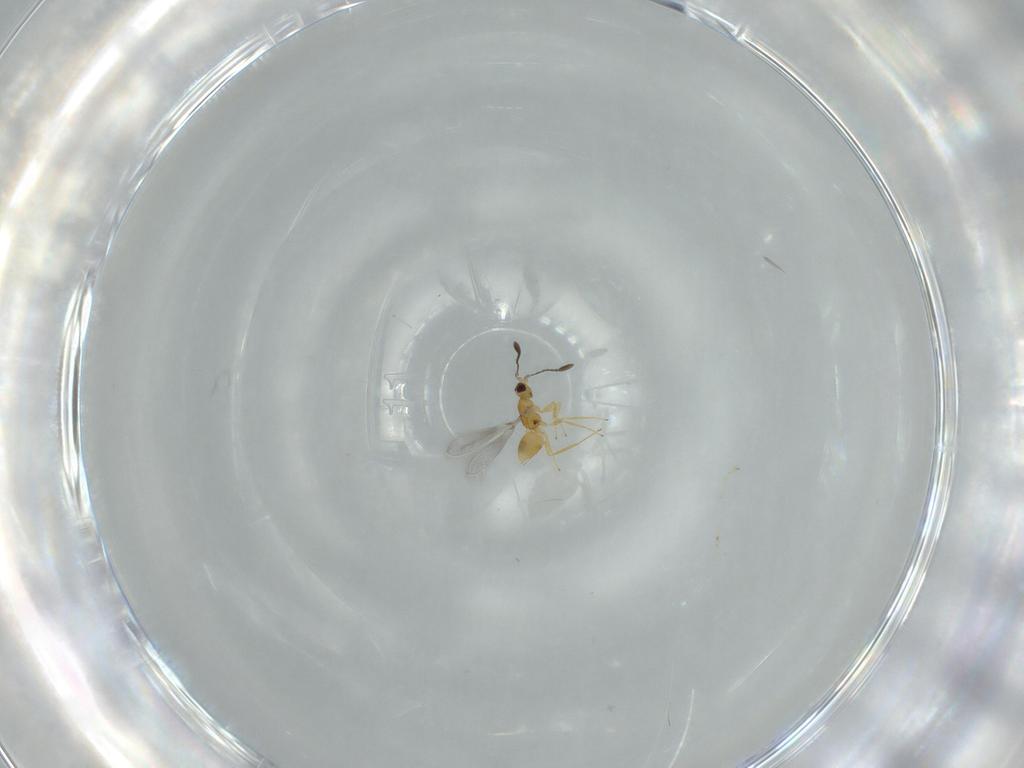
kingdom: Animalia
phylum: Arthropoda
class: Insecta
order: Hymenoptera
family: Mymaridae
